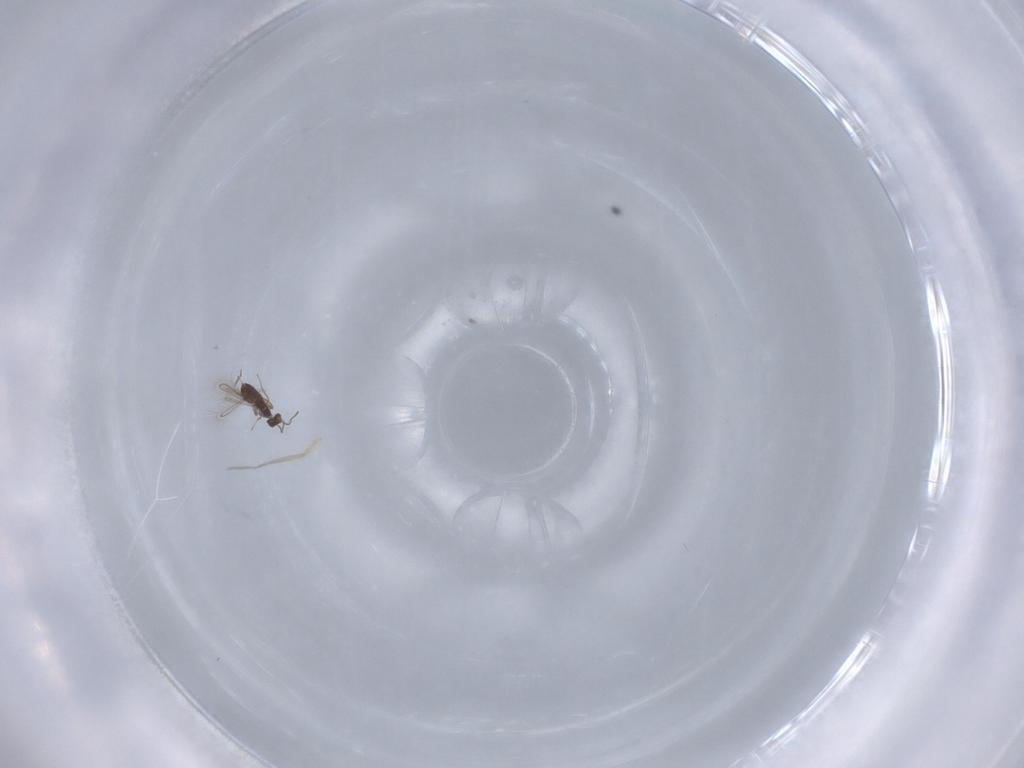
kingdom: Animalia
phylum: Arthropoda
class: Insecta
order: Hymenoptera
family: Mymaridae
